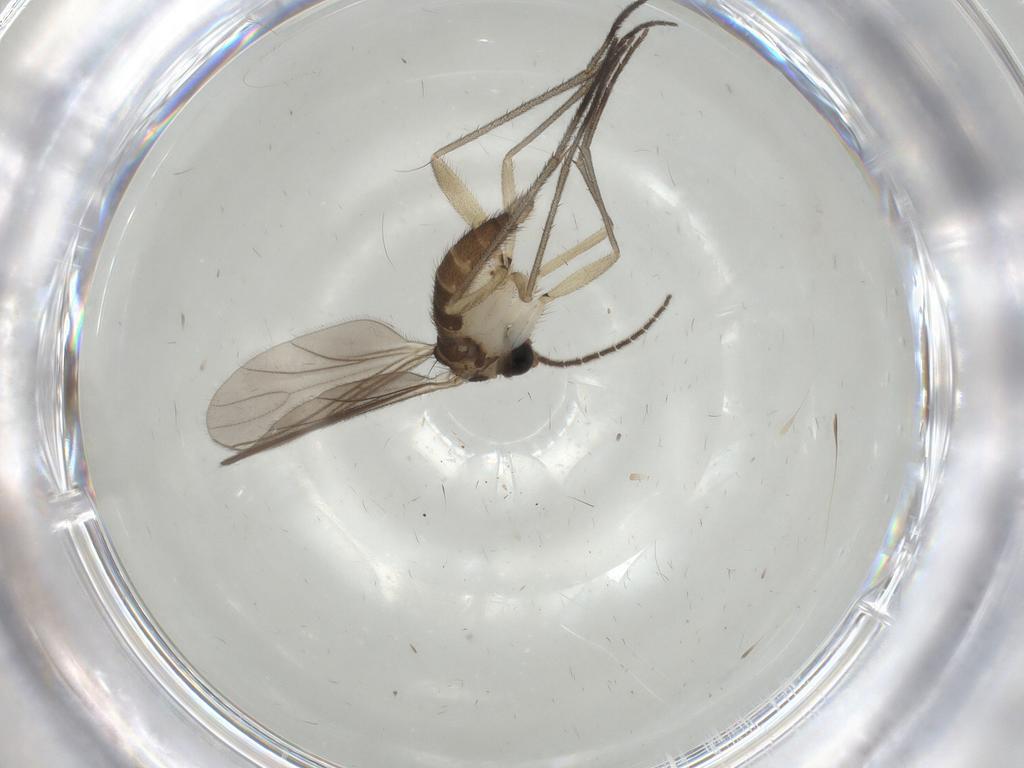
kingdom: Animalia
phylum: Arthropoda
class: Insecta
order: Diptera
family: Sciaridae
